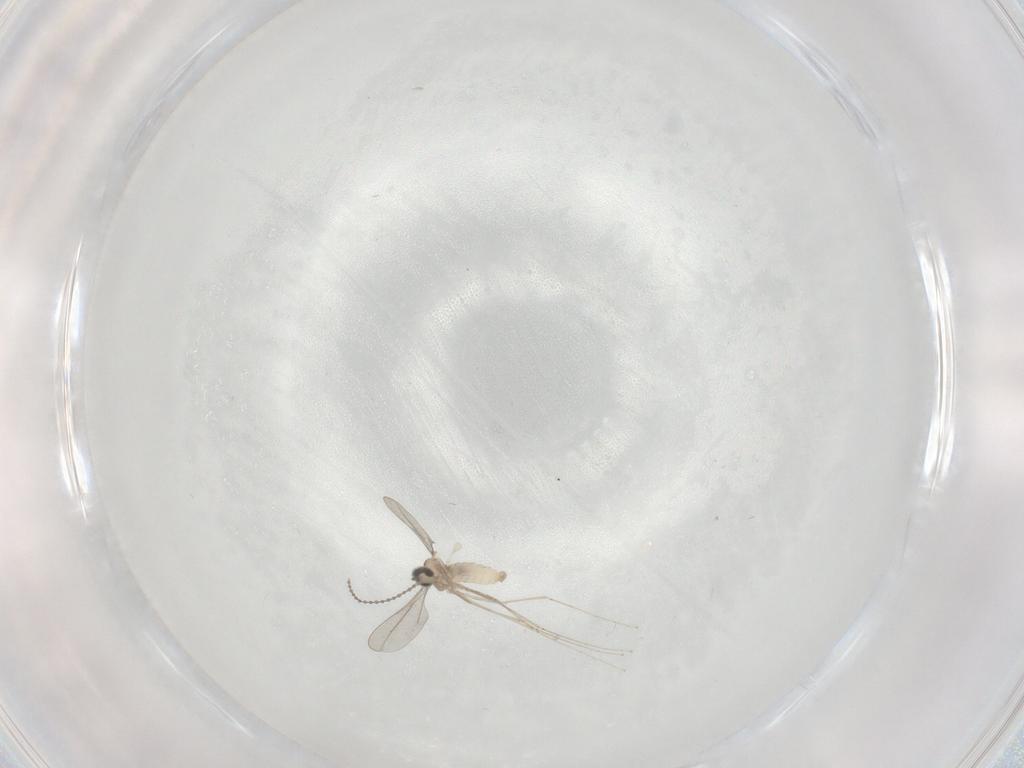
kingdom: Animalia
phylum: Arthropoda
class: Insecta
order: Diptera
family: Cecidomyiidae
